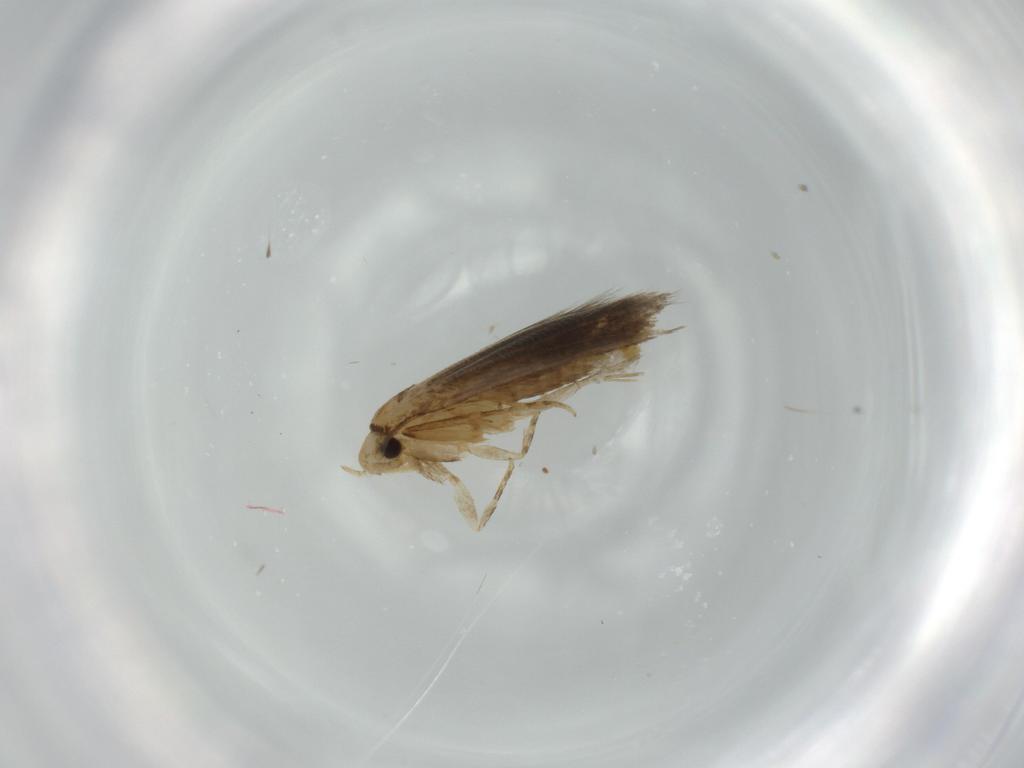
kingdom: Animalia
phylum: Arthropoda
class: Insecta
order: Lepidoptera
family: Tineidae
